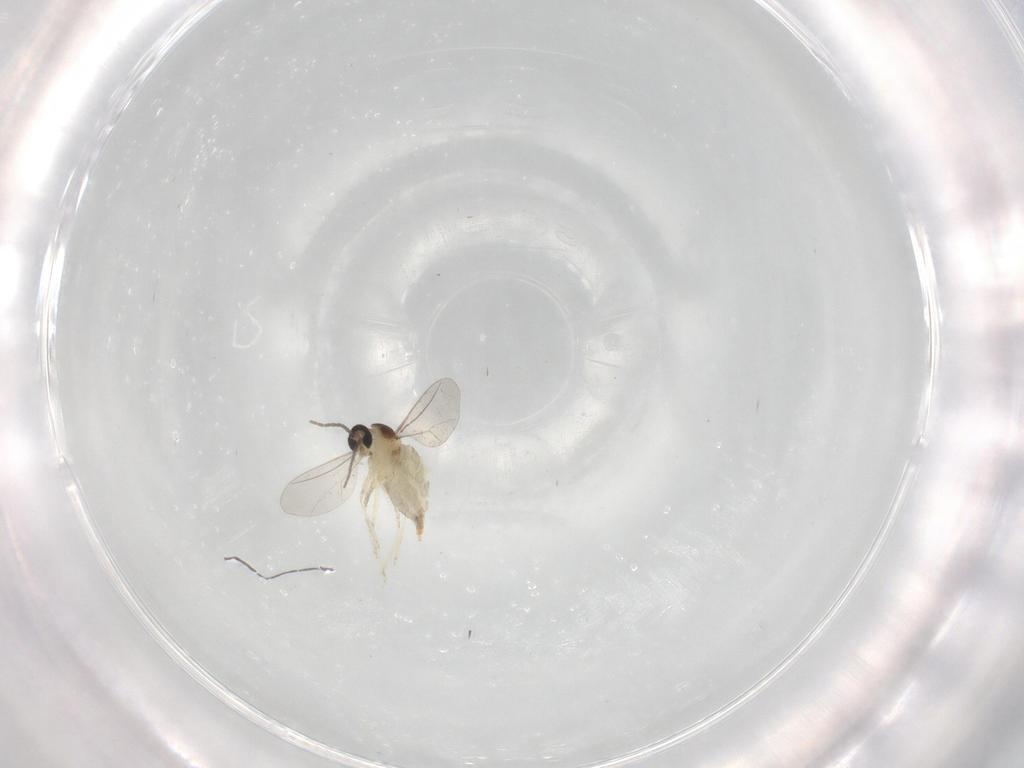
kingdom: Animalia
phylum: Arthropoda
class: Insecta
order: Diptera
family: Cecidomyiidae
